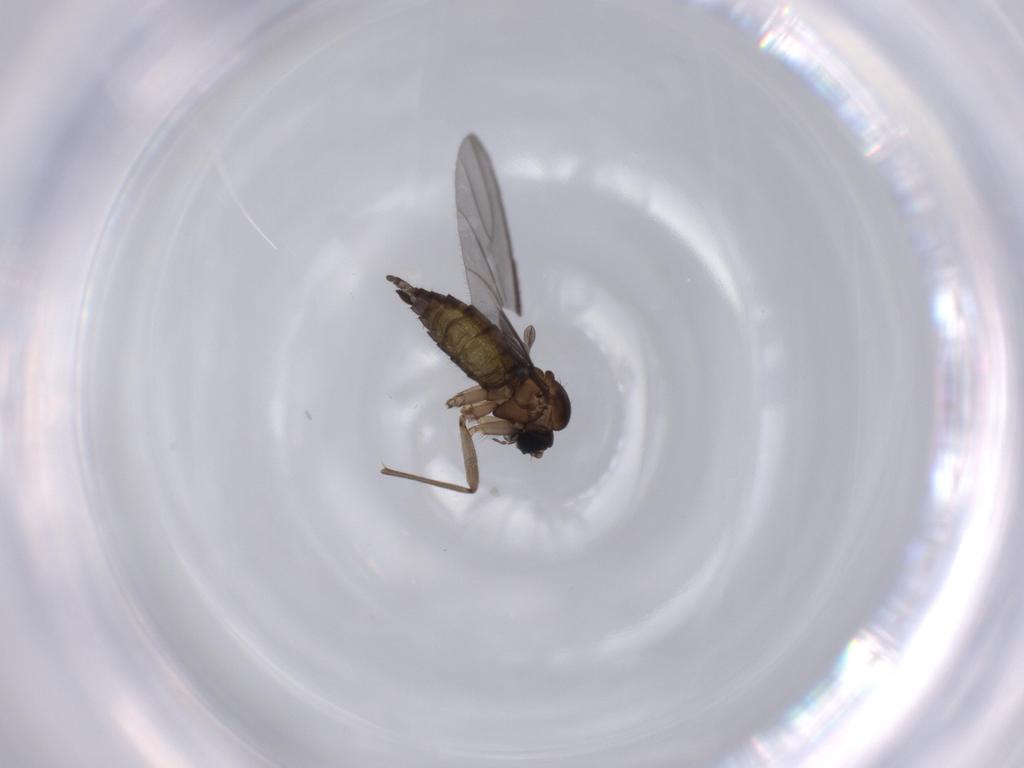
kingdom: Animalia
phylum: Arthropoda
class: Insecta
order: Diptera
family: Sciaridae
